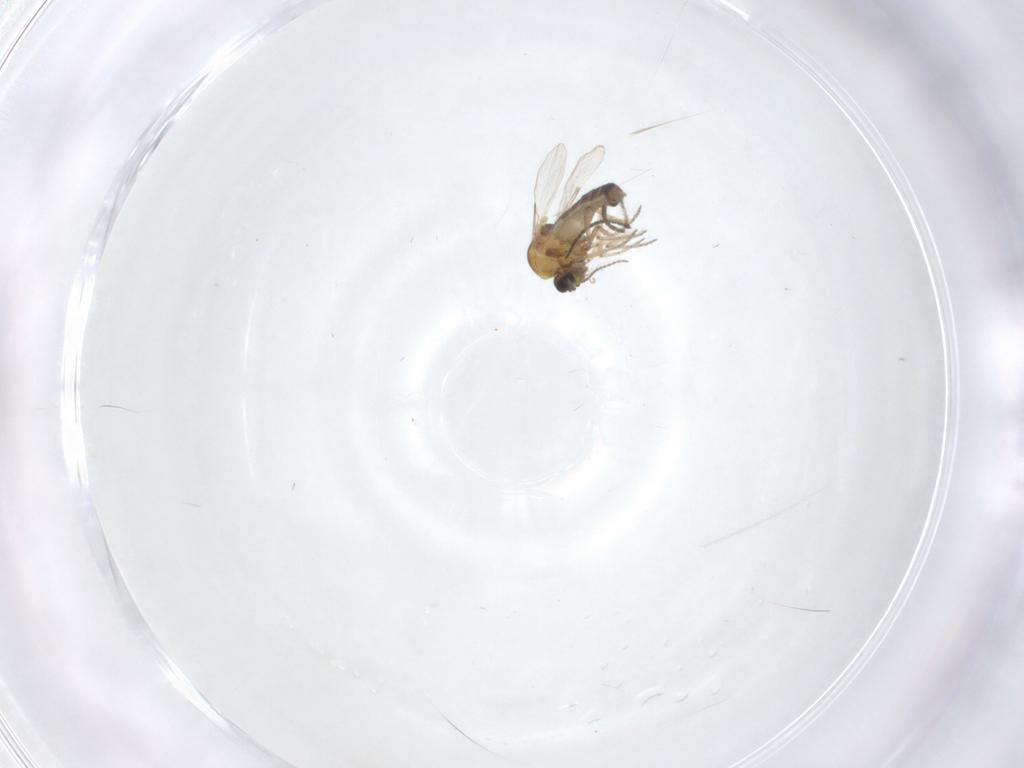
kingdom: Animalia
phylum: Arthropoda
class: Insecta
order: Diptera
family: Ceratopogonidae
